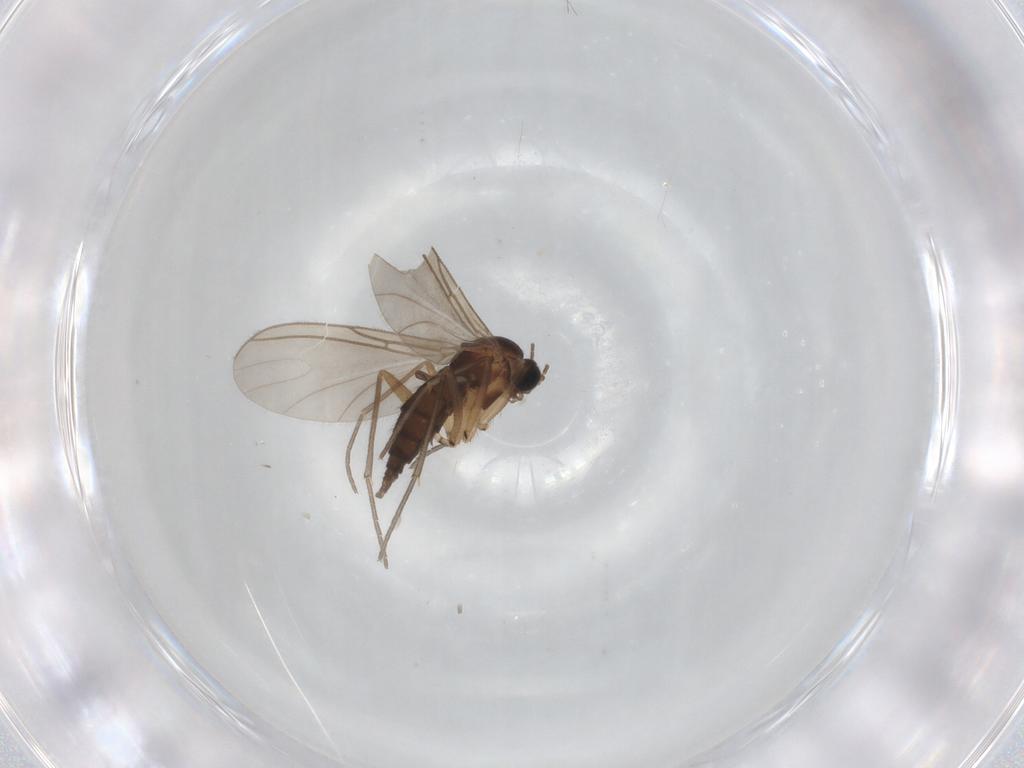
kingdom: Animalia
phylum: Arthropoda
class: Insecta
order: Diptera
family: Sciaridae
